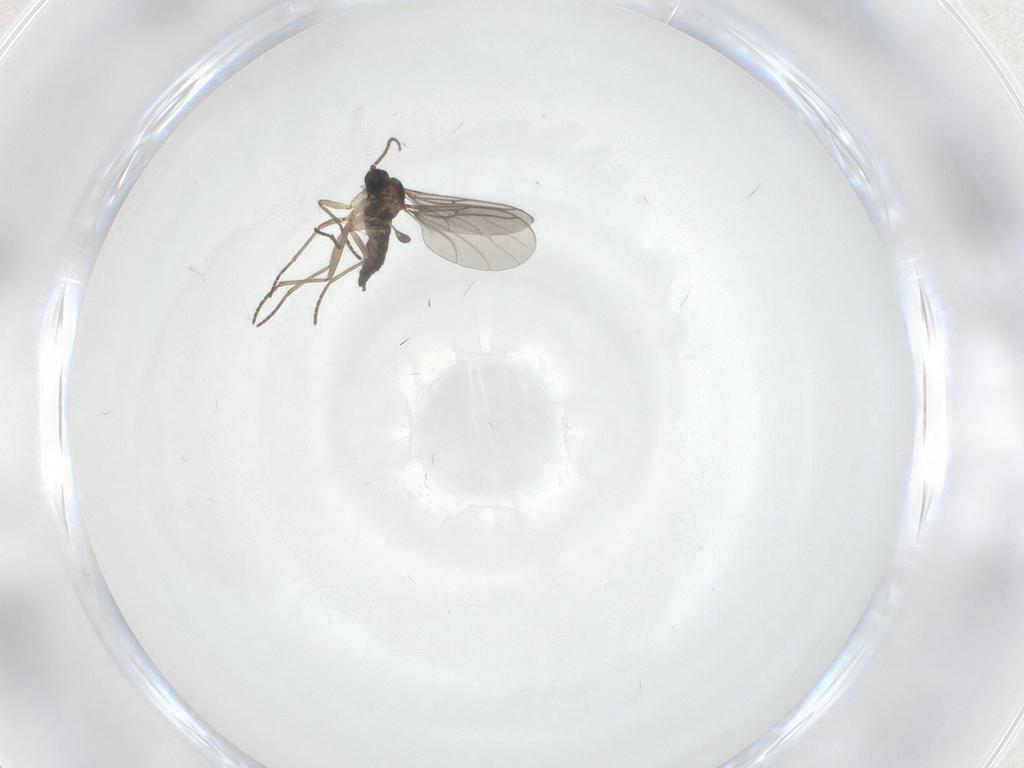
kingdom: Animalia
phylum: Arthropoda
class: Insecta
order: Diptera
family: Sciaridae
